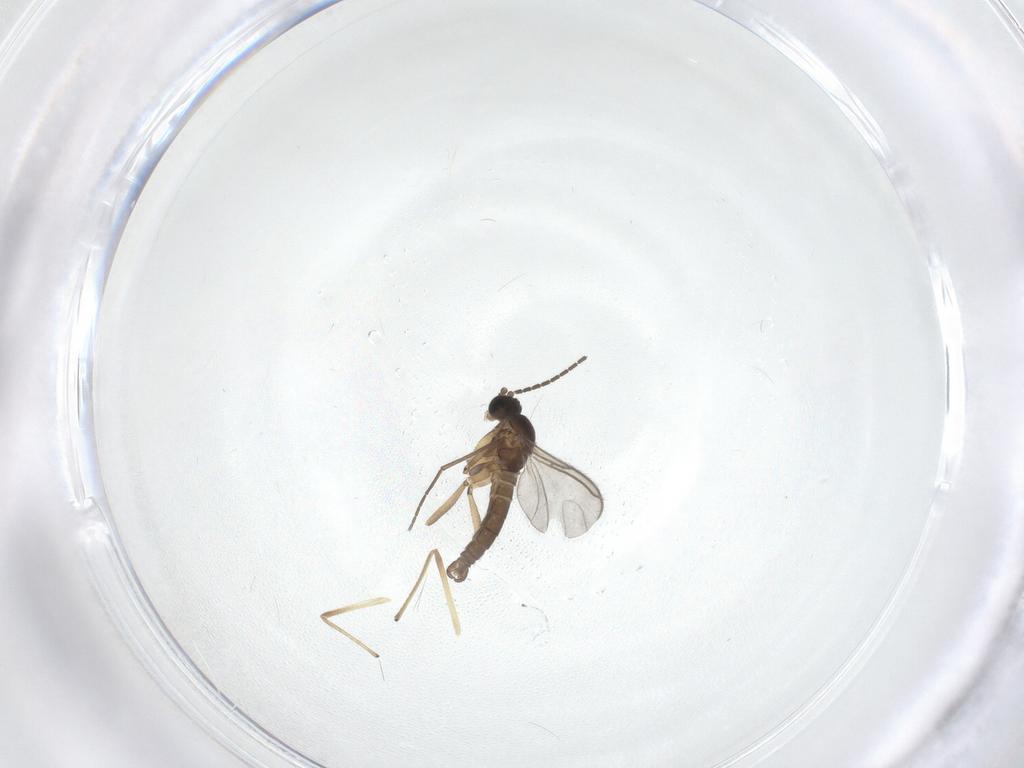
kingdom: Animalia
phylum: Arthropoda
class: Insecta
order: Diptera
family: Sciaridae
